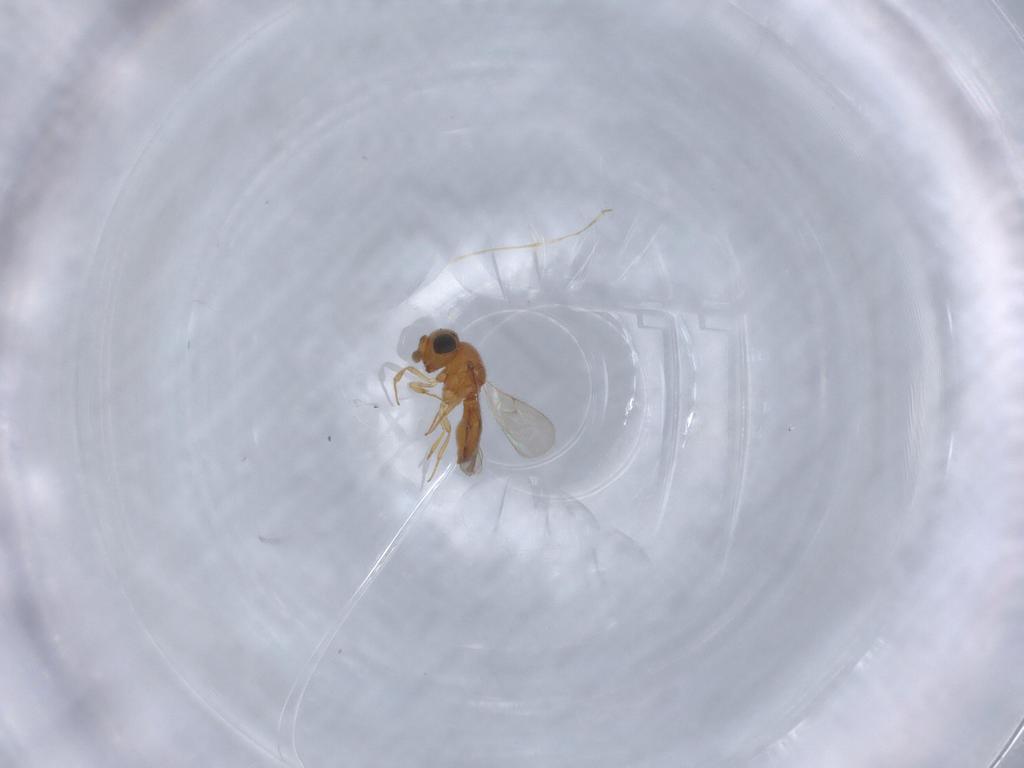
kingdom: Animalia
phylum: Arthropoda
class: Insecta
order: Hymenoptera
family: Scelionidae
